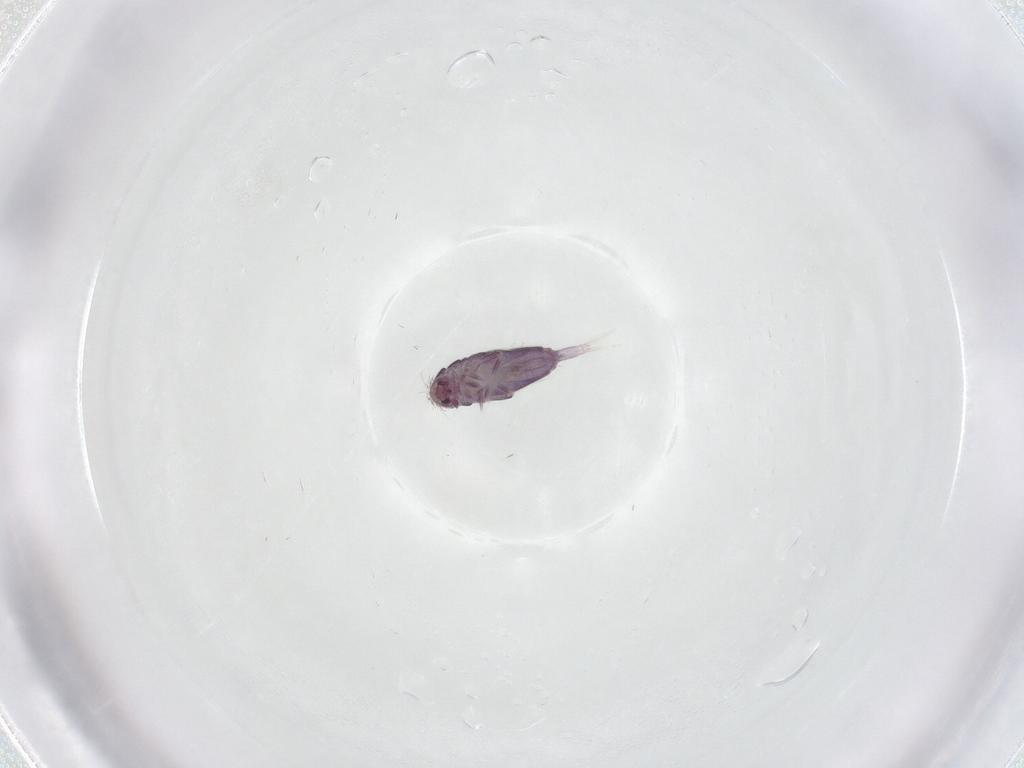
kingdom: Animalia
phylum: Arthropoda
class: Collembola
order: Entomobryomorpha
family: Entomobryidae
